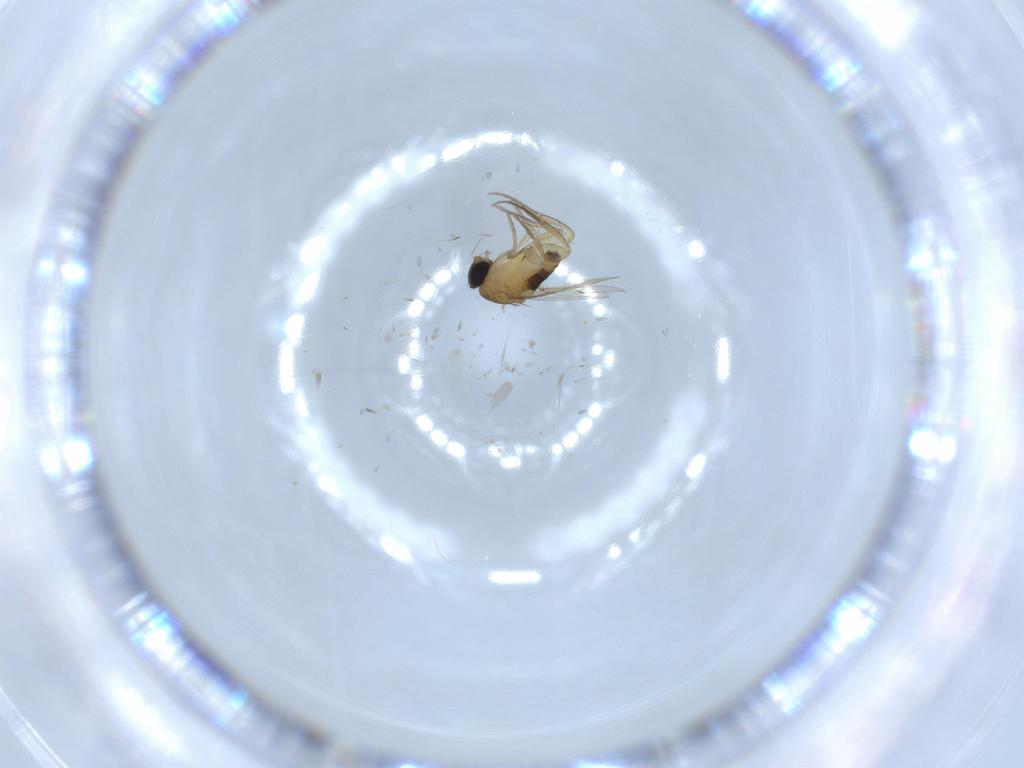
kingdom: Animalia
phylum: Arthropoda
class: Insecta
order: Diptera
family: Phoridae
